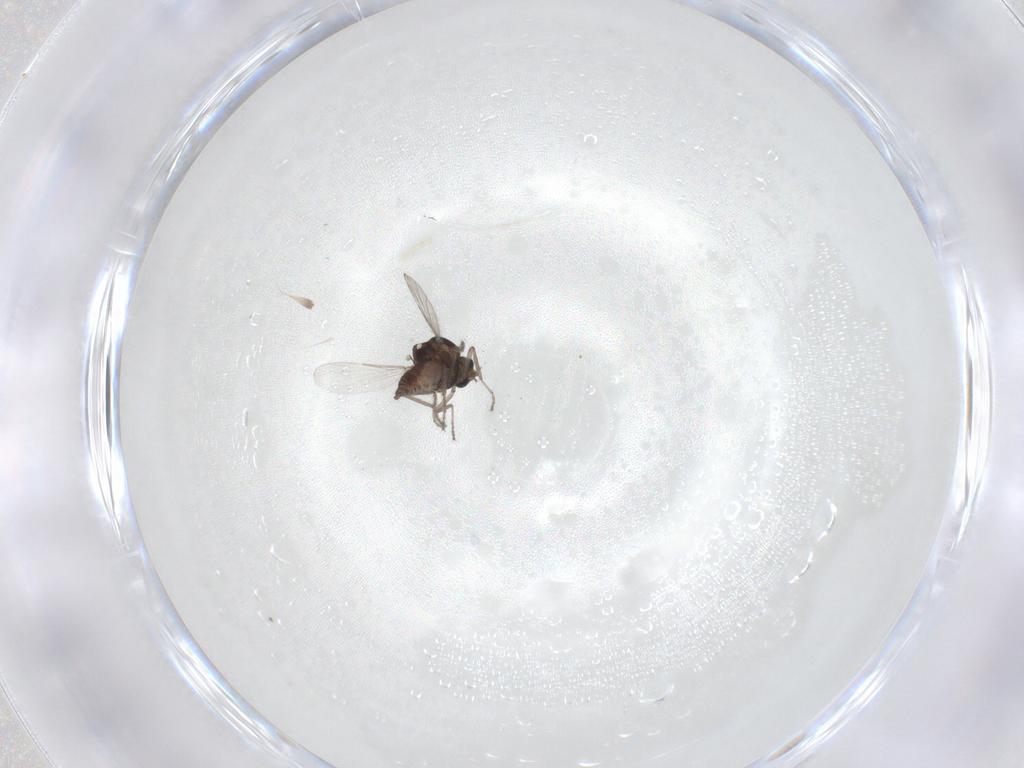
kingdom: Animalia
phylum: Arthropoda
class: Insecta
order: Diptera
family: Ceratopogonidae
